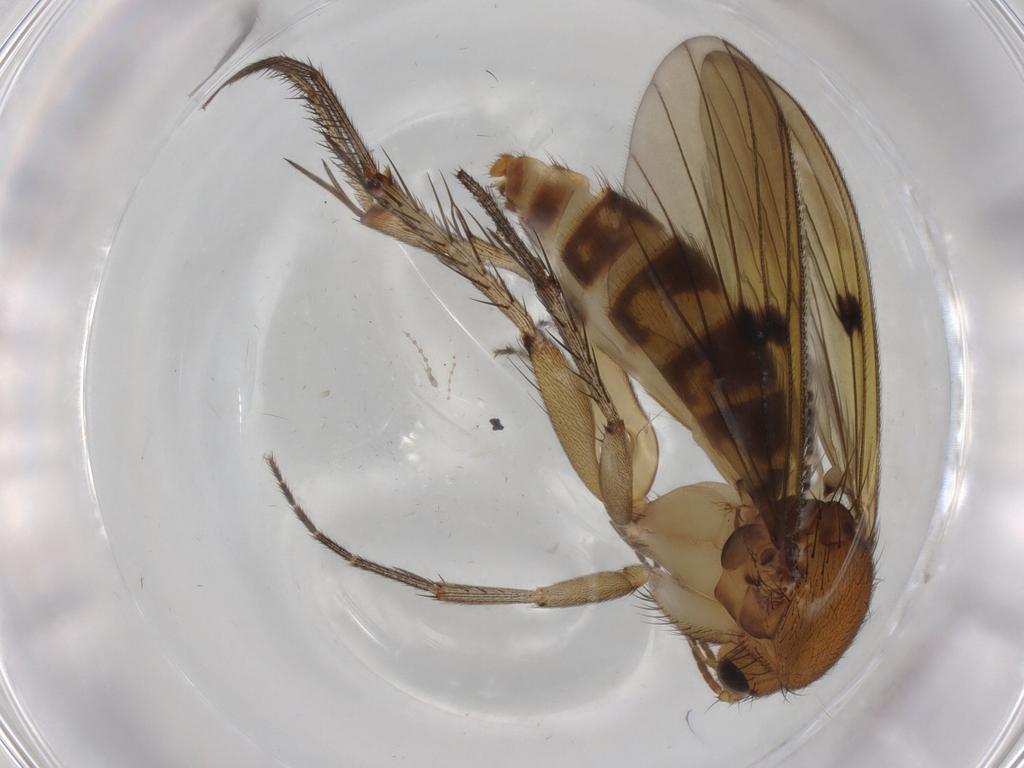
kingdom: Animalia
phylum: Arthropoda
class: Insecta
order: Diptera
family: Mycetophilidae
